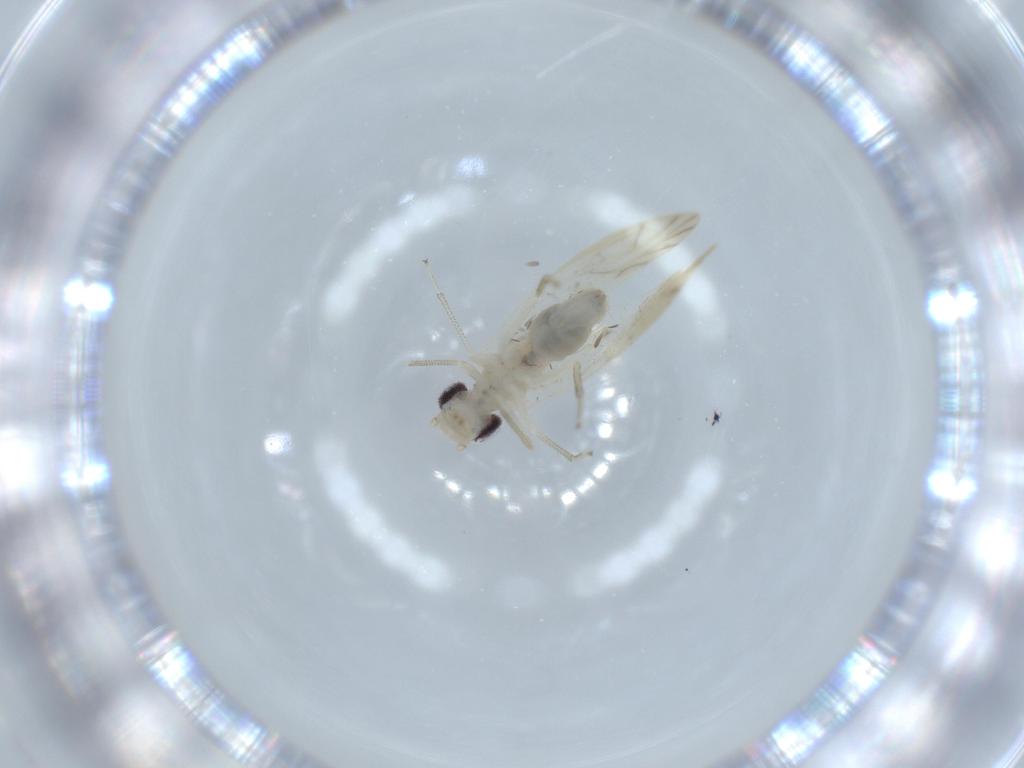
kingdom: Animalia
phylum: Arthropoda
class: Insecta
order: Psocodea
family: Caeciliusidae
